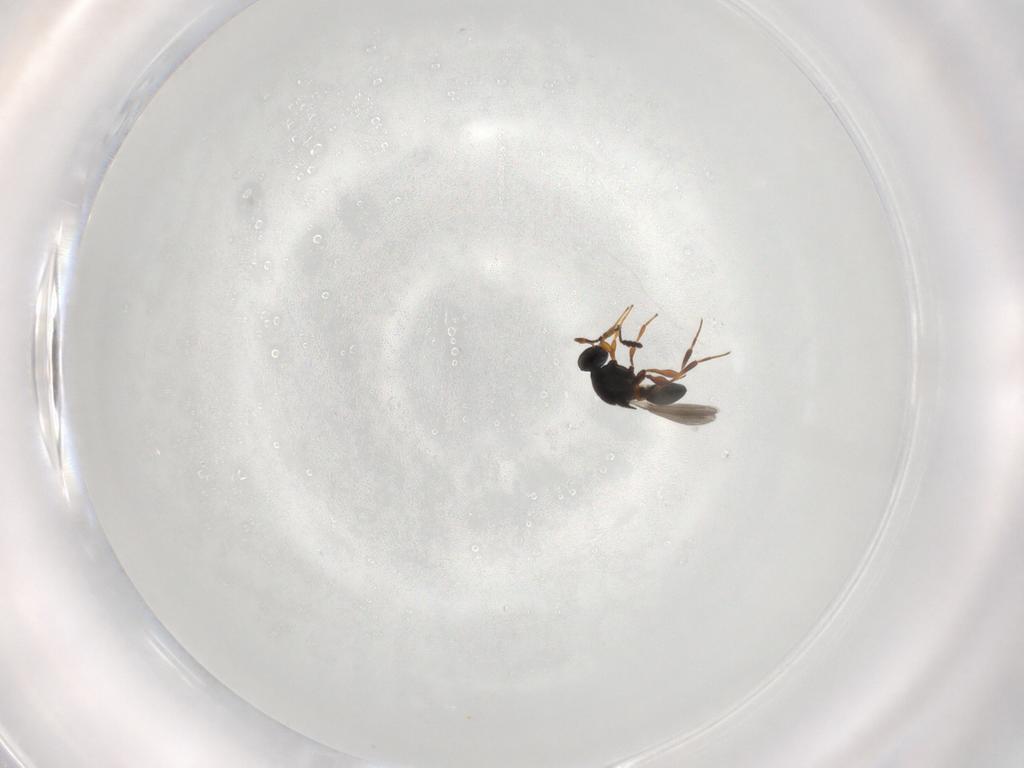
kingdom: Animalia
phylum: Arthropoda
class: Insecta
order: Hymenoptera
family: Platygastridae
